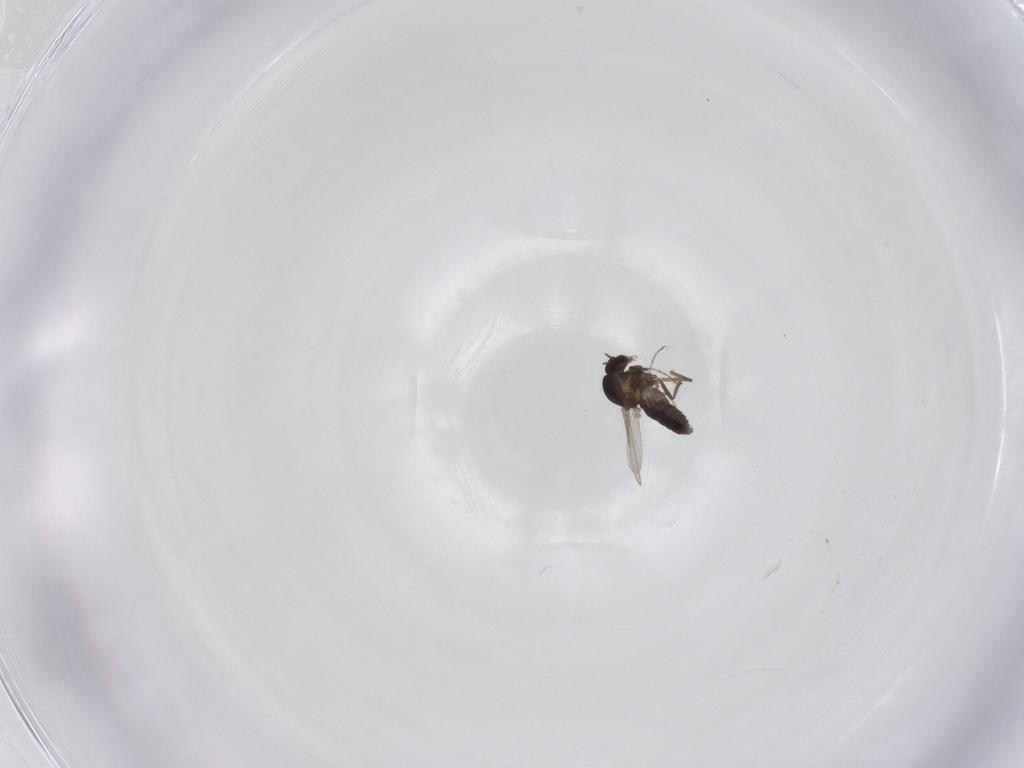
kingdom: Animalia
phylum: Arthropoda
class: Insecta
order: Diptera
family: Ceratopogonidae
